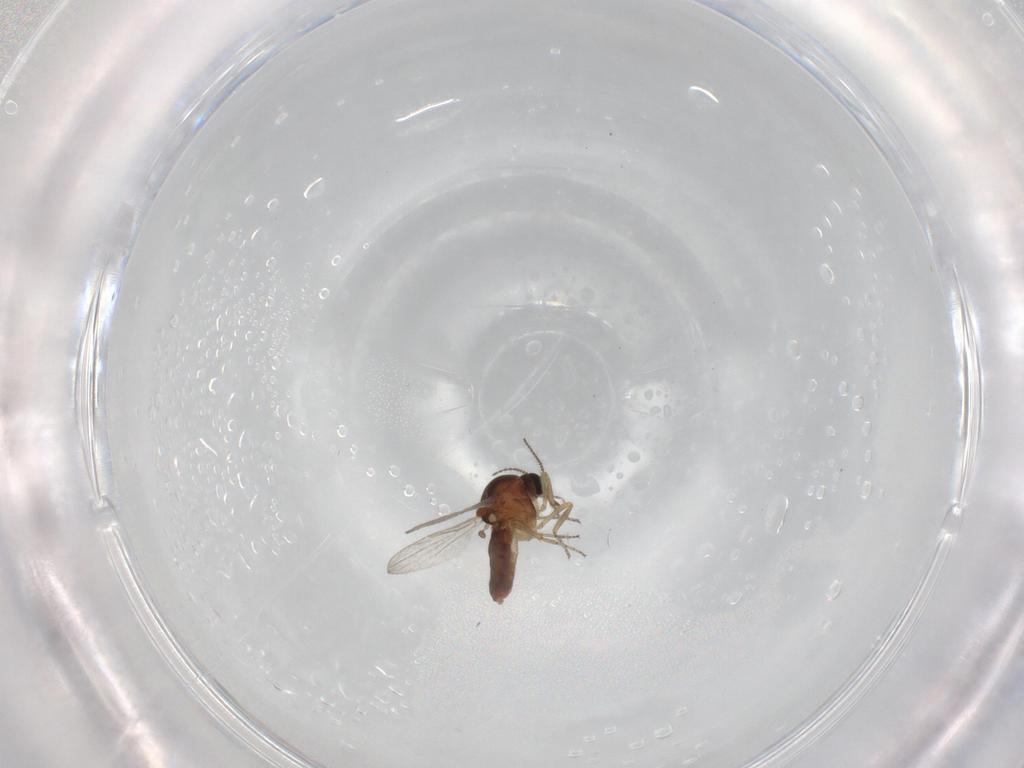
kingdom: Animalia
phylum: Arthropoda
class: Insecta
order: Diptera
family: Ceratopogonidae
